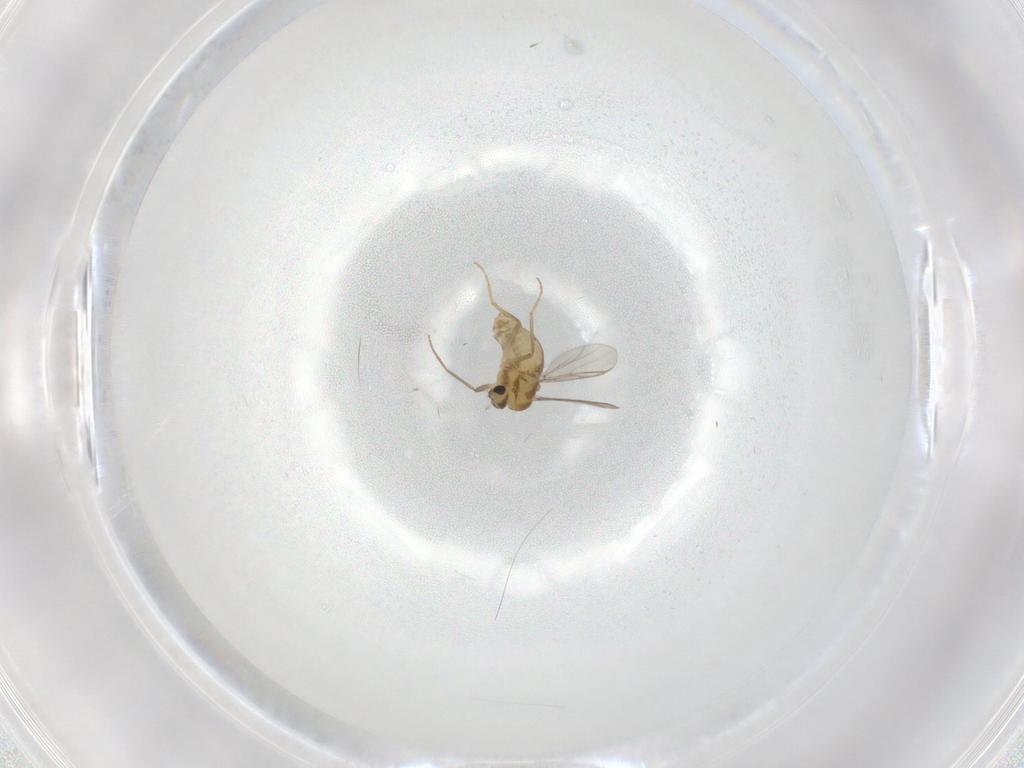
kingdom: Animalia
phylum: Arthropoda
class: Insecta
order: Diptera
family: Chironomidae
